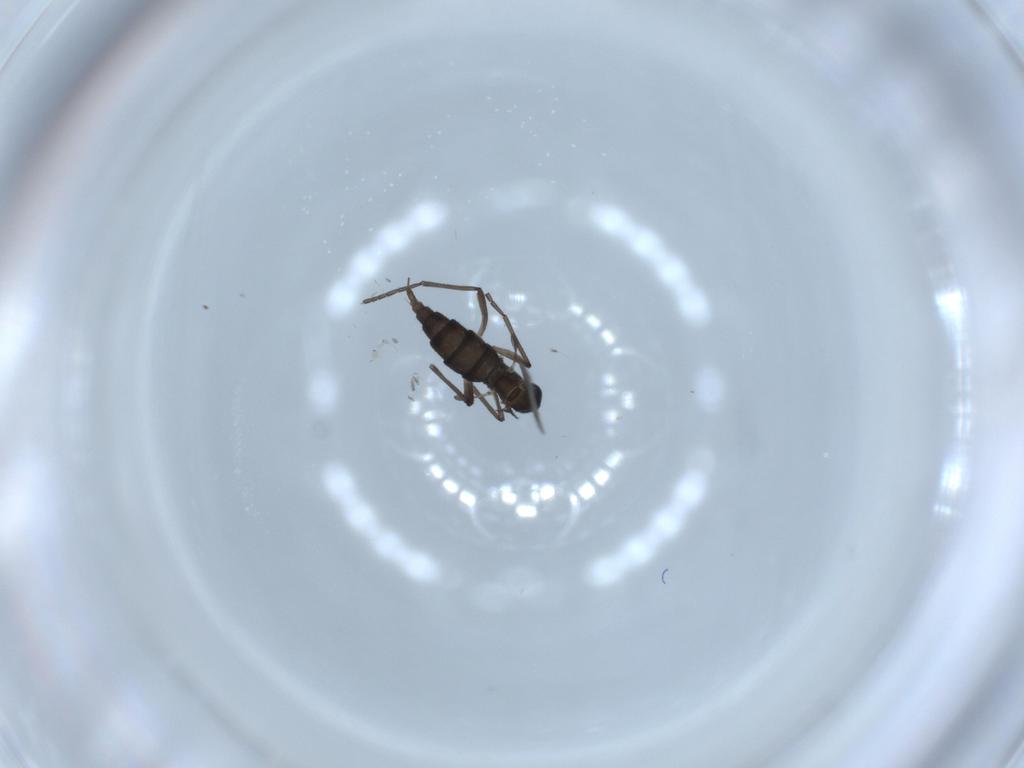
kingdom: Animalia
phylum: Arthropoda
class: Insecta
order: Diptera
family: Sciaridae
